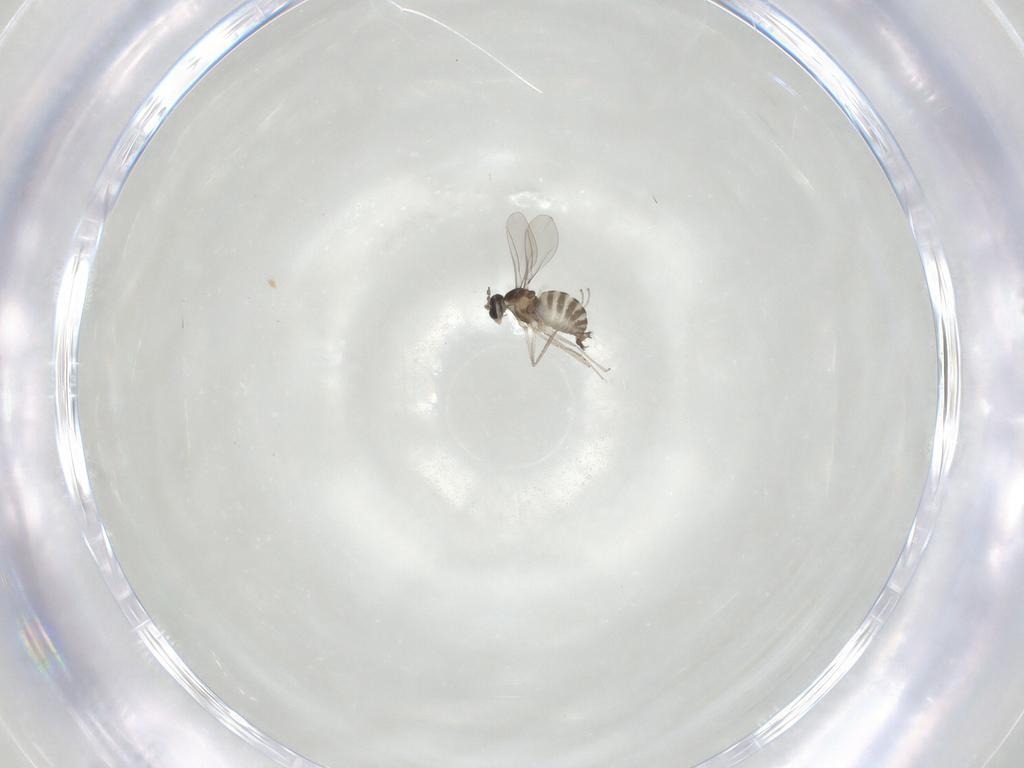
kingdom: Animalia
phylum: Arthropoda
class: Insecta
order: Diptera
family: Cecidomyiidae
